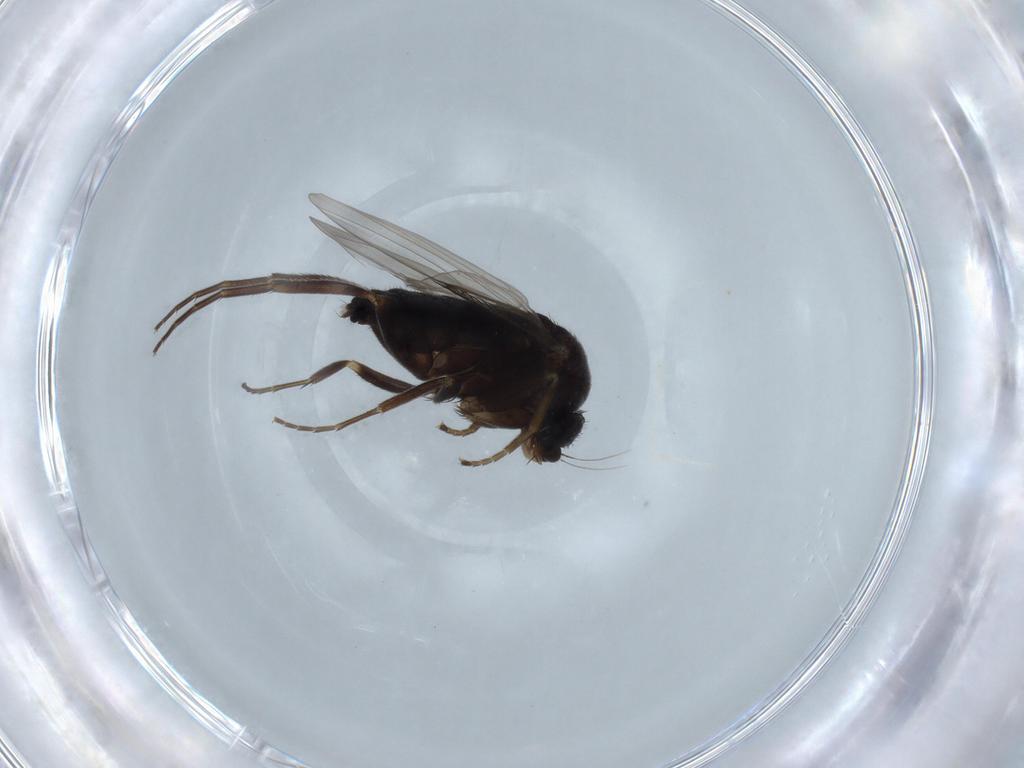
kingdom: Animalia
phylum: Arthropoda
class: Insecta
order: Diptera
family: Phoridae
